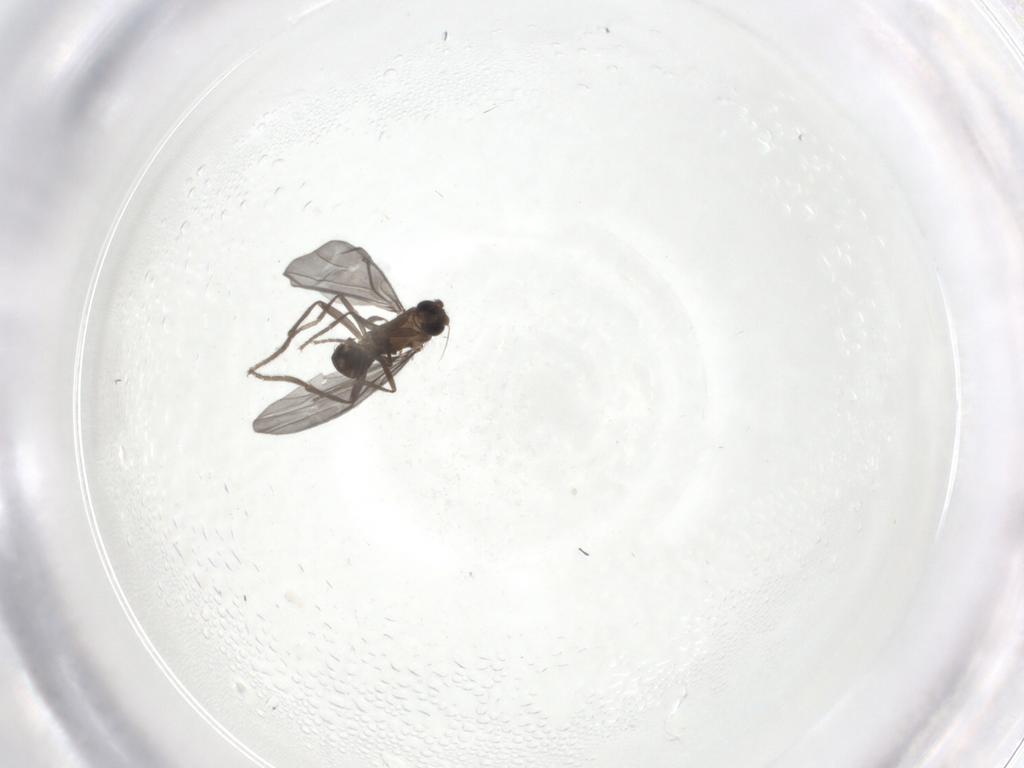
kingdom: Animalia
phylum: Arthropoda
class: Insecta
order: Diptera
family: Phoridae
